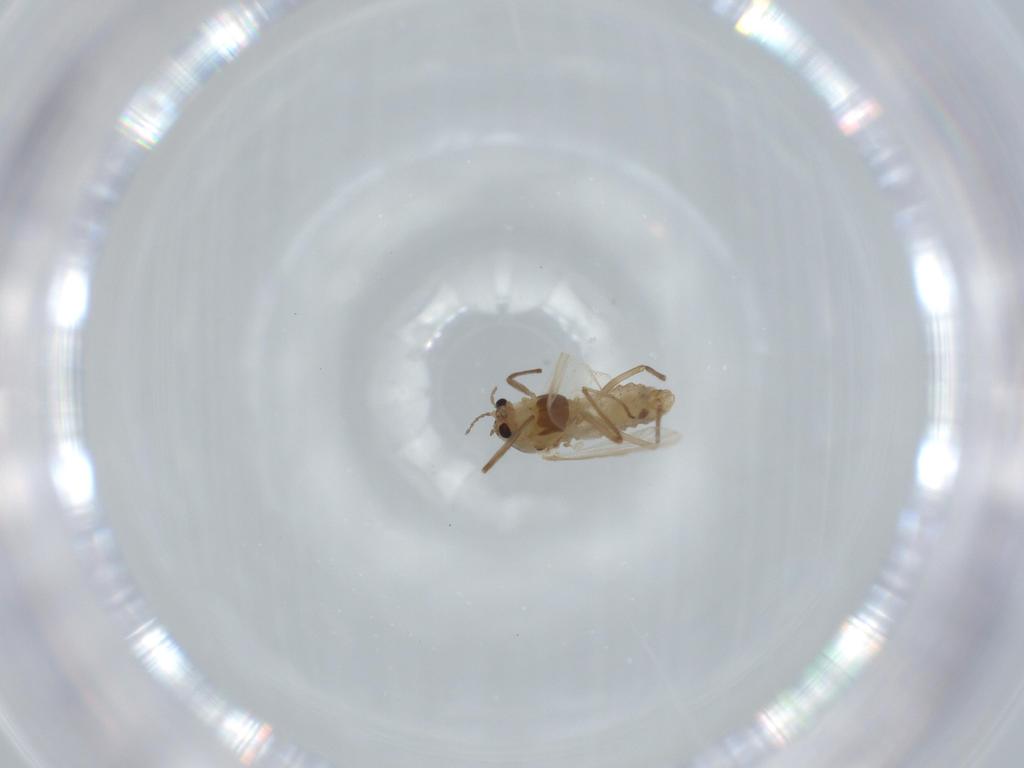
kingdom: Animalia
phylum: Arthropoda
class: Insecta
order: Diptera
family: Chironomidae
